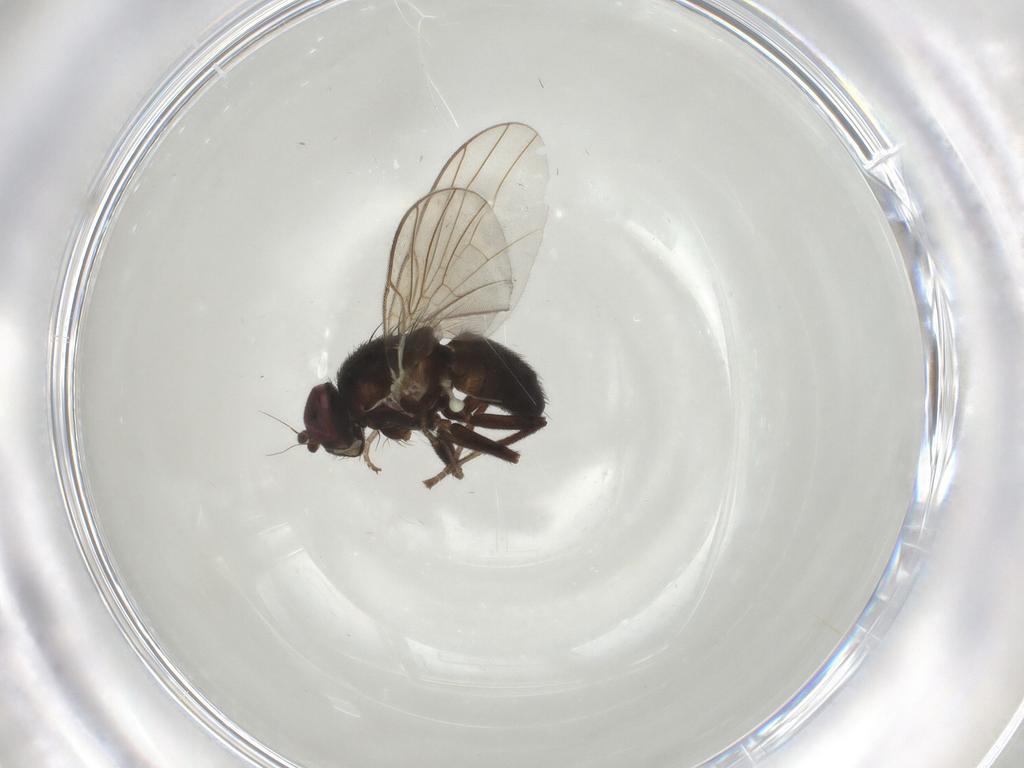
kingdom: Animalia
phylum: Arthropoda
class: Insecta
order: Diptera
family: Agromyzidae
